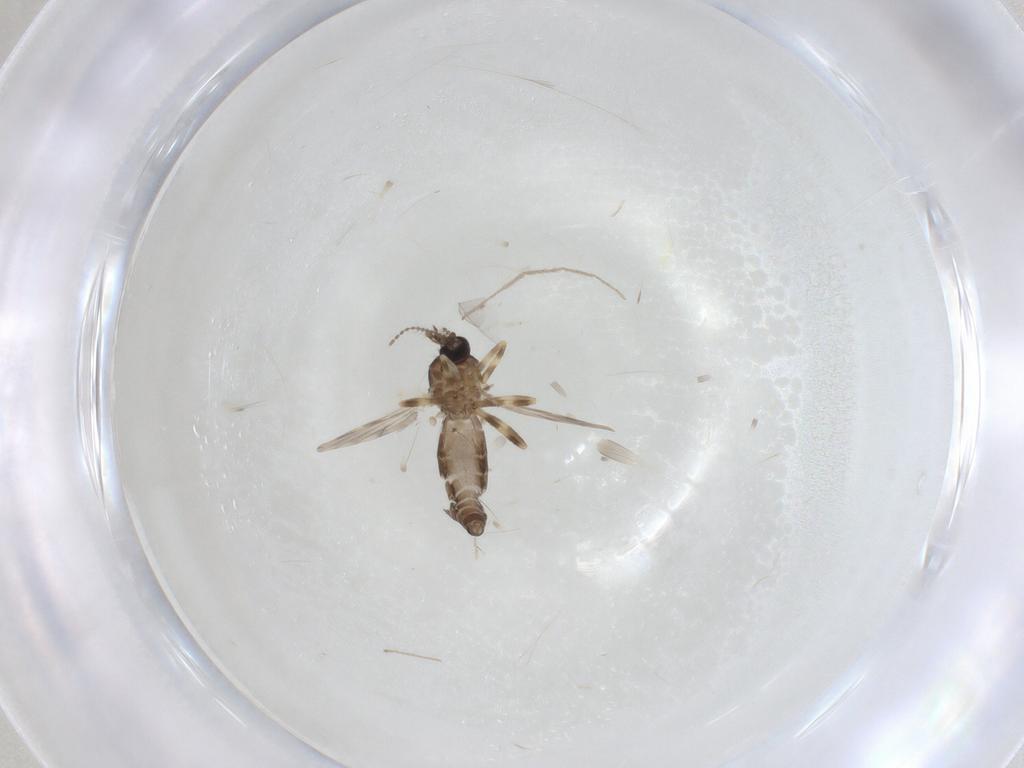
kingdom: Animalia
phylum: Arthropoda
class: Insecta
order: Diptera
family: Ceratopogonidae
